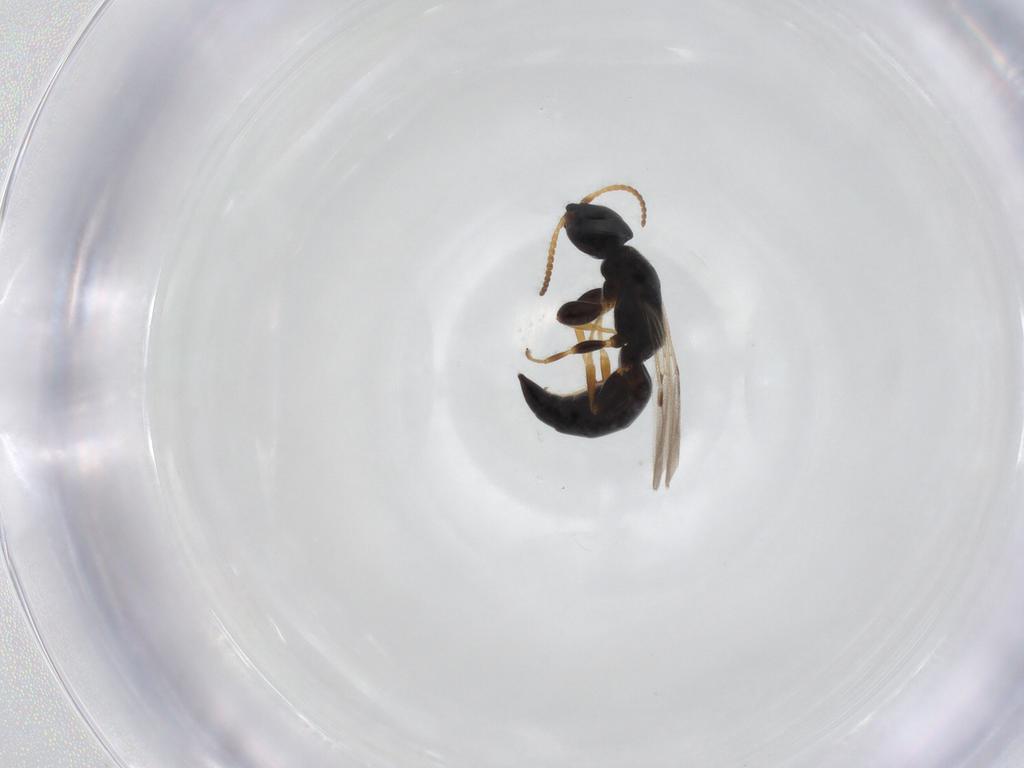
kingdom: Animalia
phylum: Arthropoda
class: Insecta
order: Hymenoptera
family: Bethylidae
